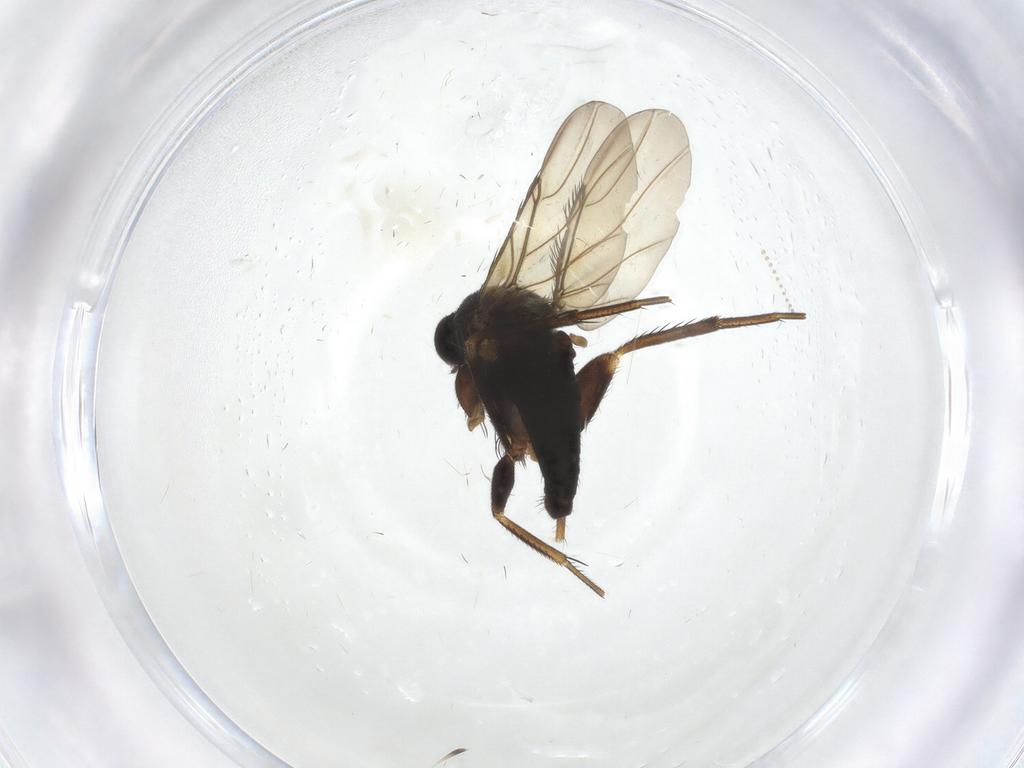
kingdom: Animalia
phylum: Arthropoda
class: Insecta
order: Diptera
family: Phoridae
